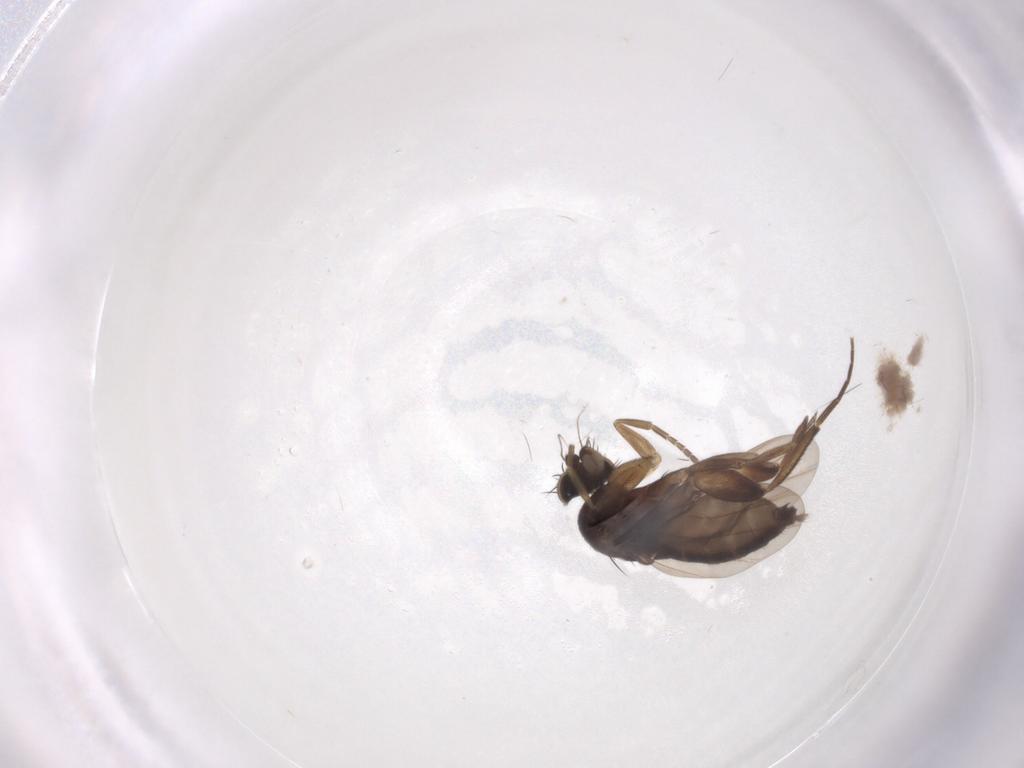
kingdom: Animalia
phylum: Arthropoda
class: Insecta
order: Diptera
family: Phoridae
